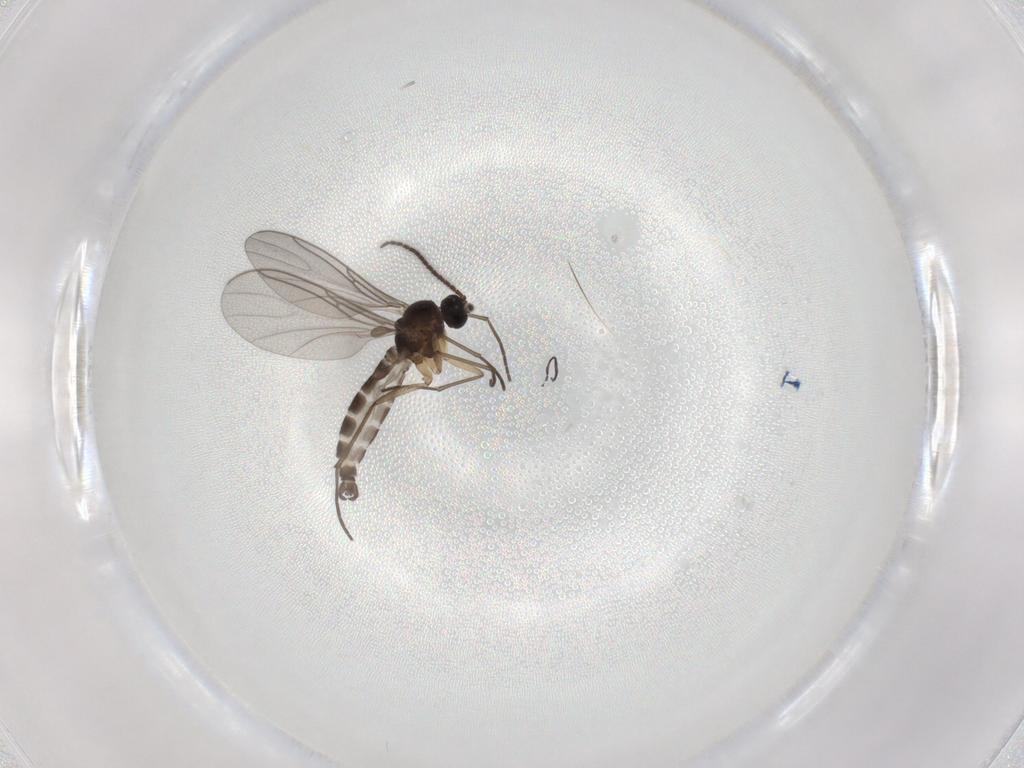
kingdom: Animalia
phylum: Arthropoda
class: Insecta
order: Diptera
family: Sciaridae
